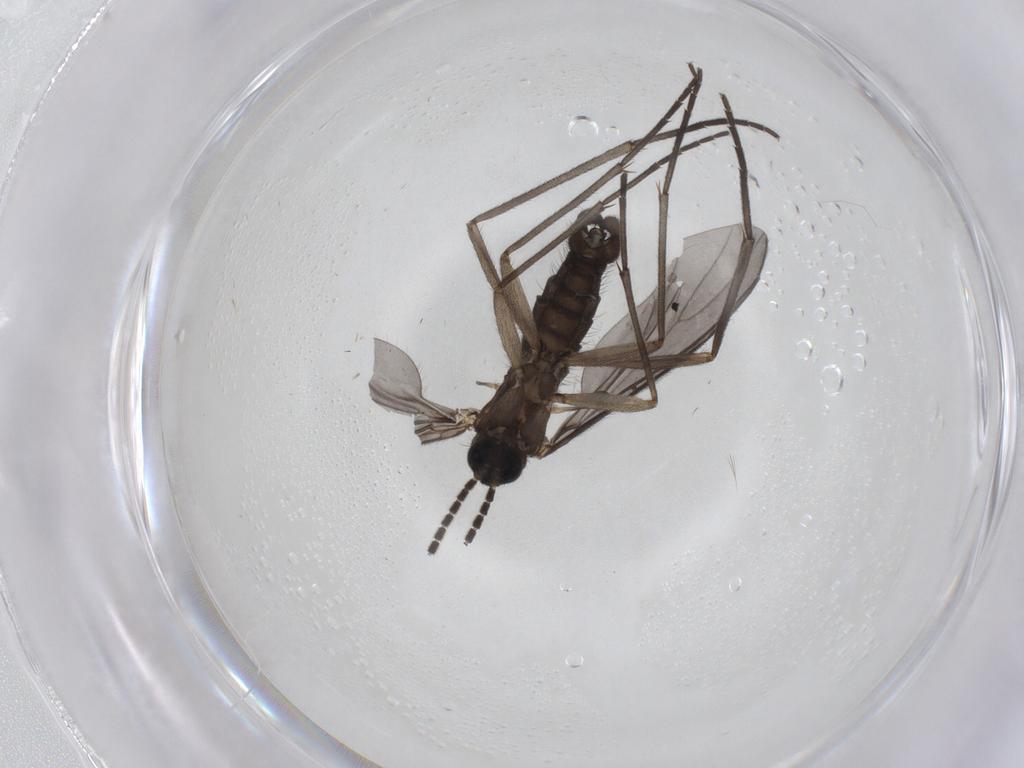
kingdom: Animalia
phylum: Arthropoda
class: Insecta
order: Diptera
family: Sciaridae
